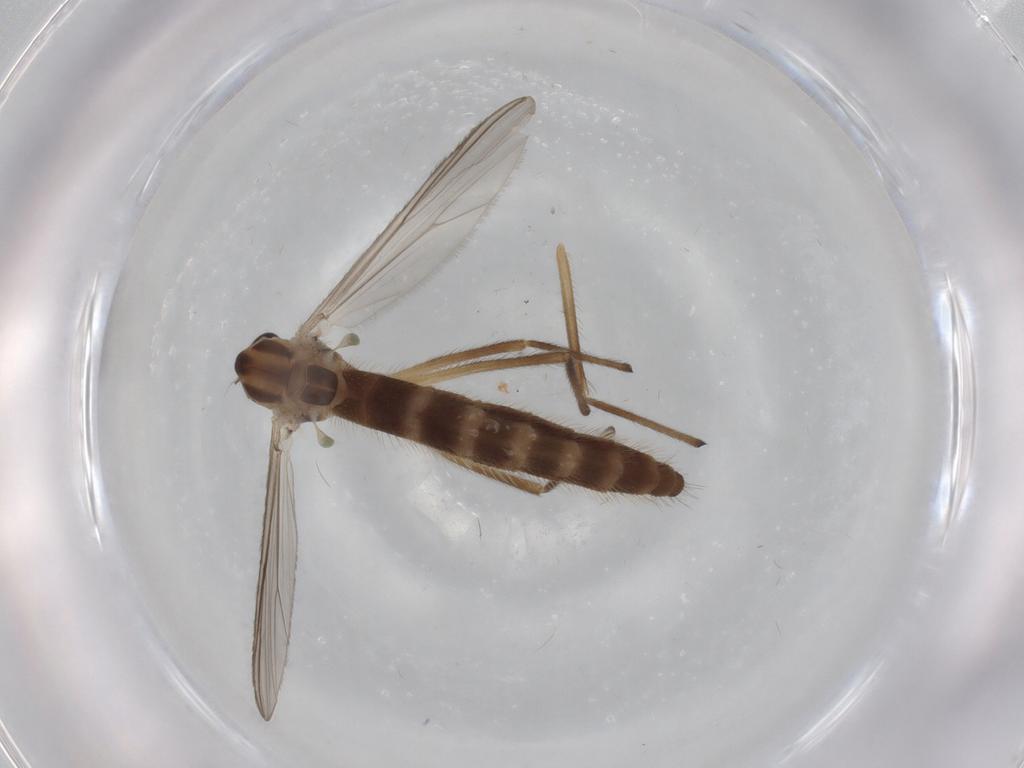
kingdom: Animalia
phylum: Arthropoda
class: Insecta
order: Diptera
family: Chironomidae
